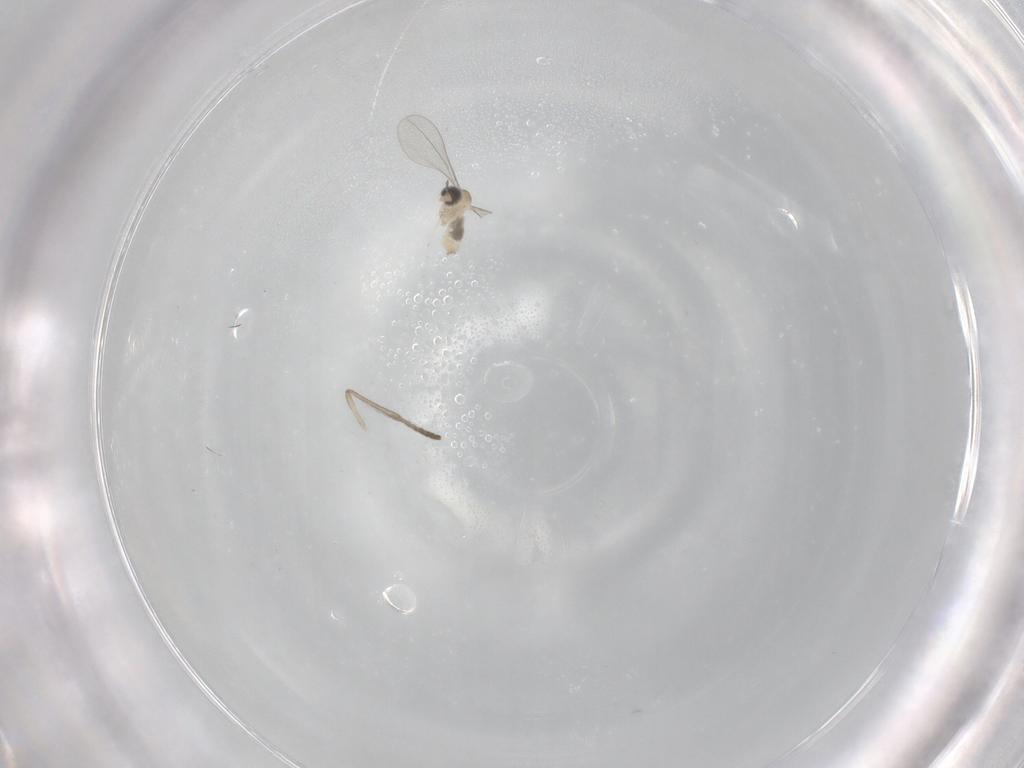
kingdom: Animalia
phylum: Arthropoda
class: Insecta
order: Diptera
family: Cecidomyiidae
